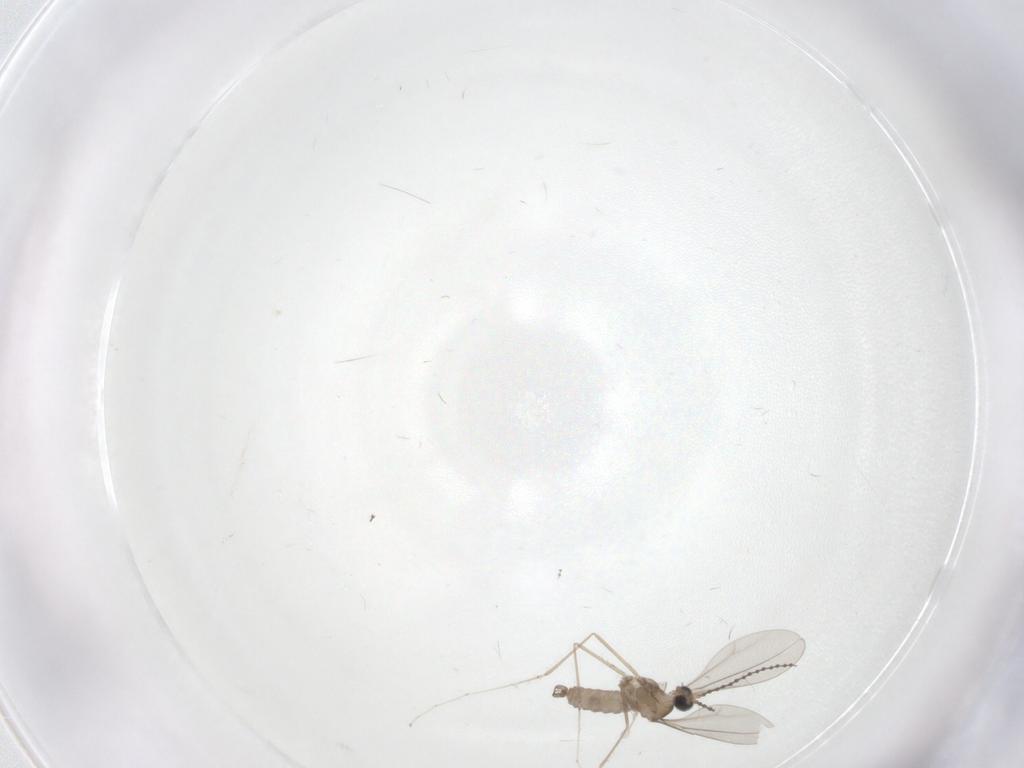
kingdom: Animalia
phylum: Arthropoda
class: Insecta
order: Diptera
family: Cecidomyiidae
